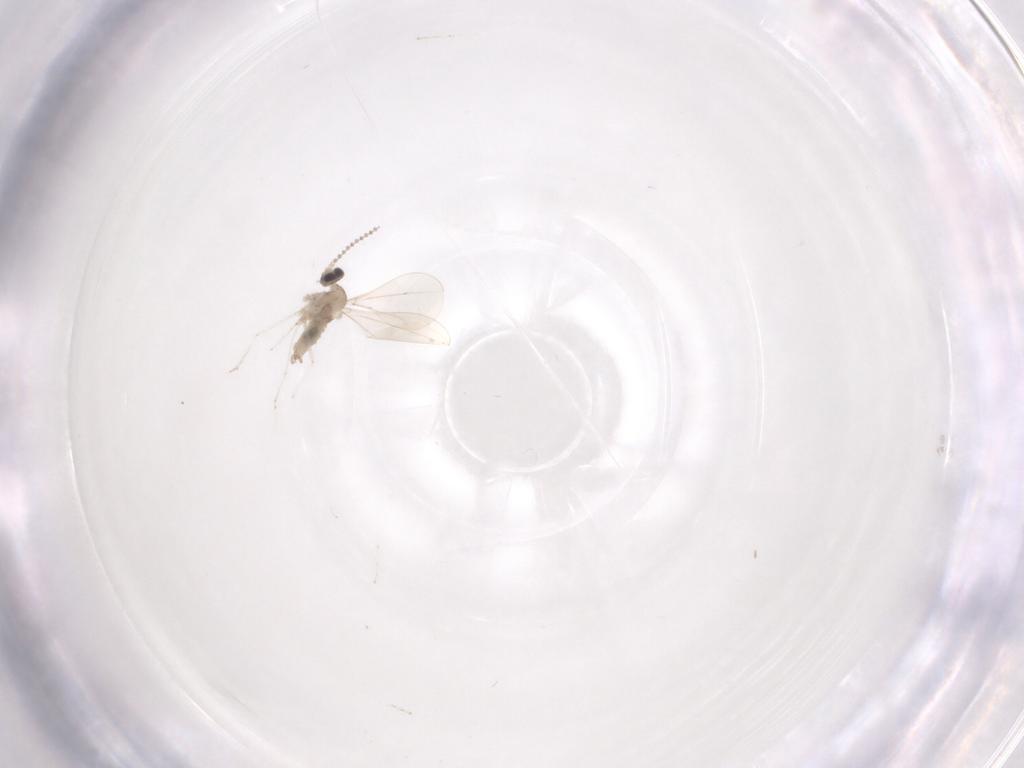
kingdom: Animalia
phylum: Arthropoda
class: Insecta
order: Diptera
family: Cecidomyiidae
